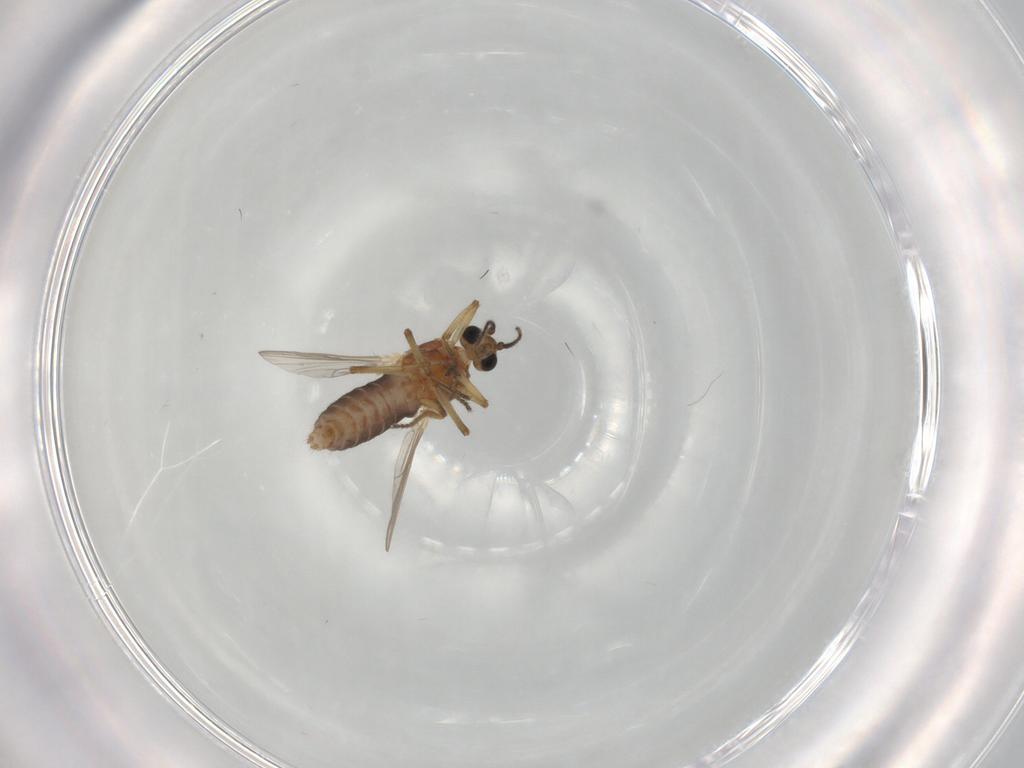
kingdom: Animalia
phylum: Arthropoda
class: Insecta
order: Diptera
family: Ceratopogonidae
